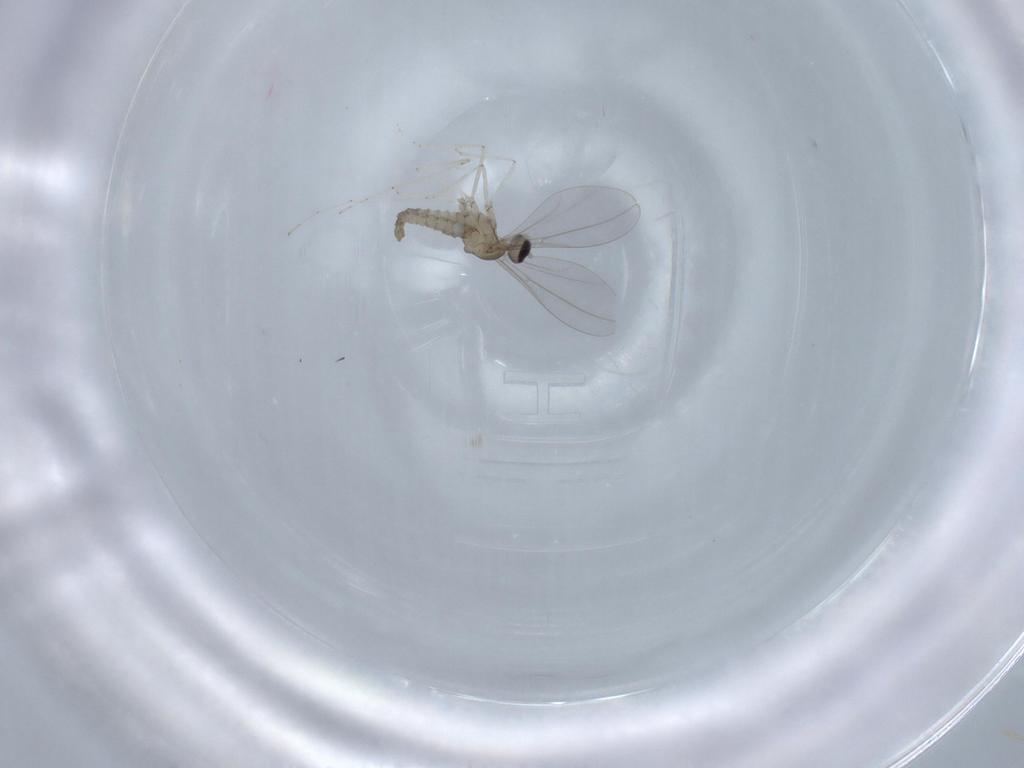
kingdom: Animalia
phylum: Arthropoda
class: Insecta
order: Diptera
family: Cecidomyiidae
